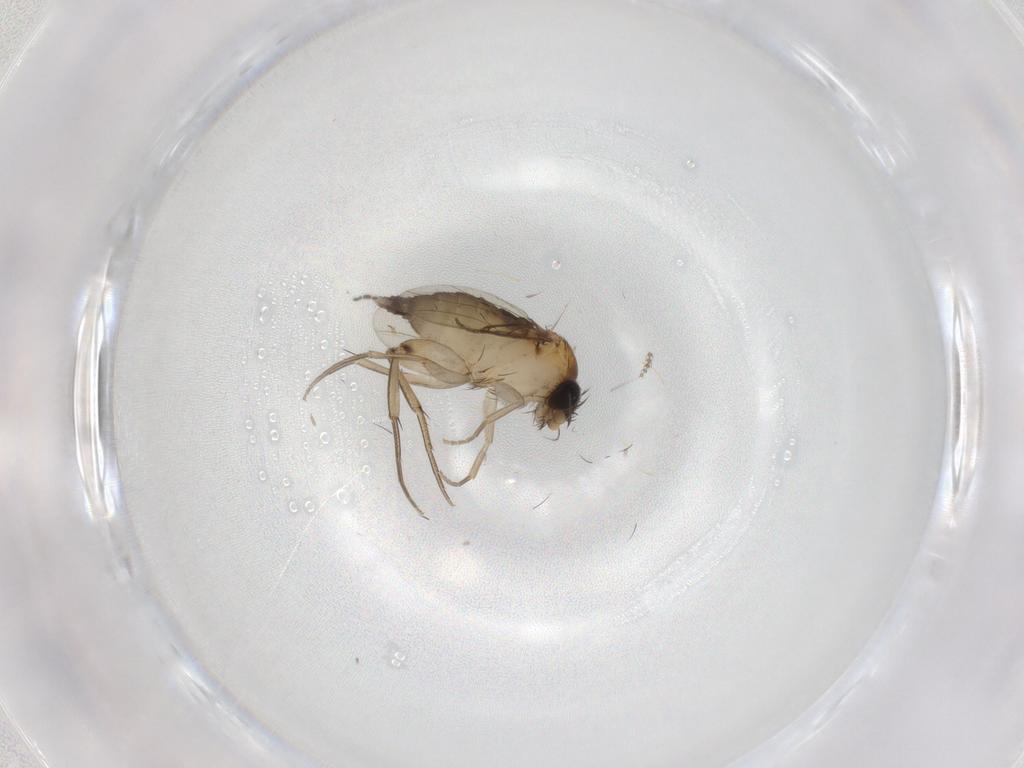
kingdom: Animalia
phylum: Arthropoda
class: Insecta
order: Diptera
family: Phoridae
